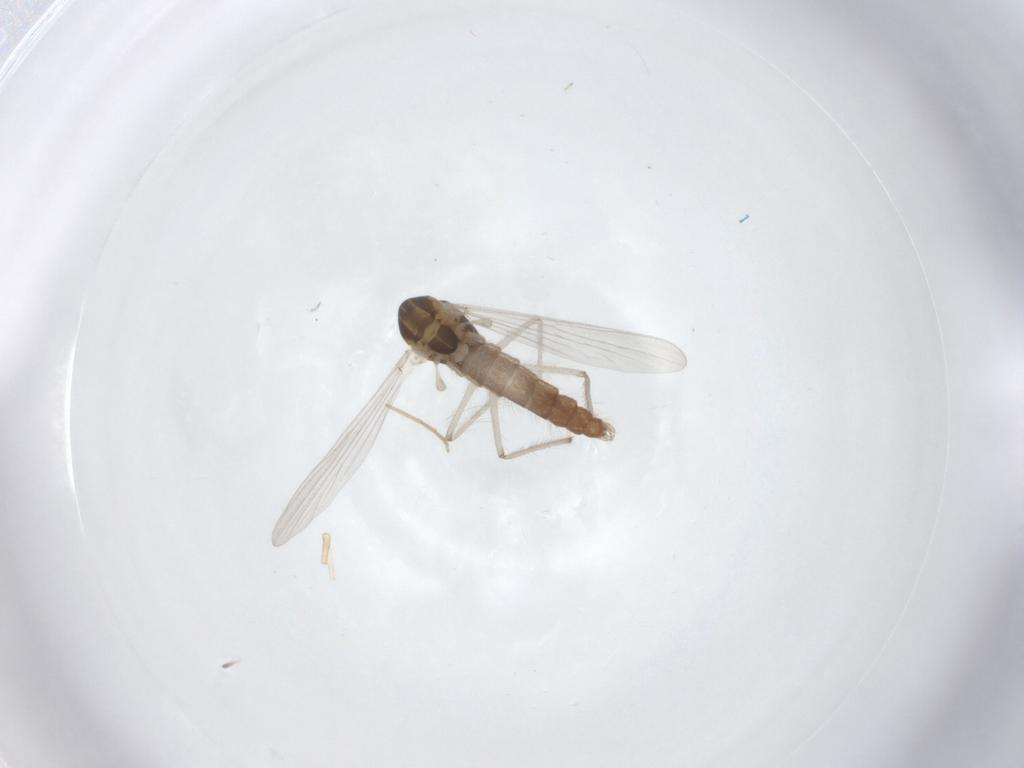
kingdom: Animalia
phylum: Arthropoda
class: Insecta
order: Diptera
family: Chironomidae
